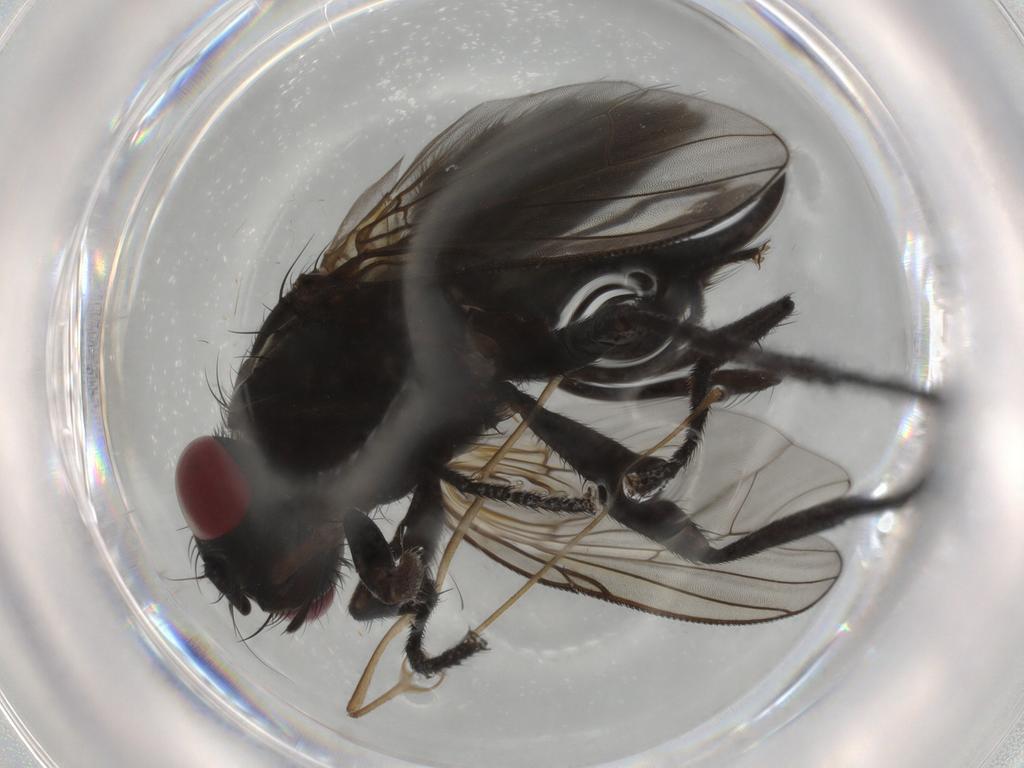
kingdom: Animalia
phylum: Arthropoda
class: Insecta
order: Diptera
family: Muscidae
